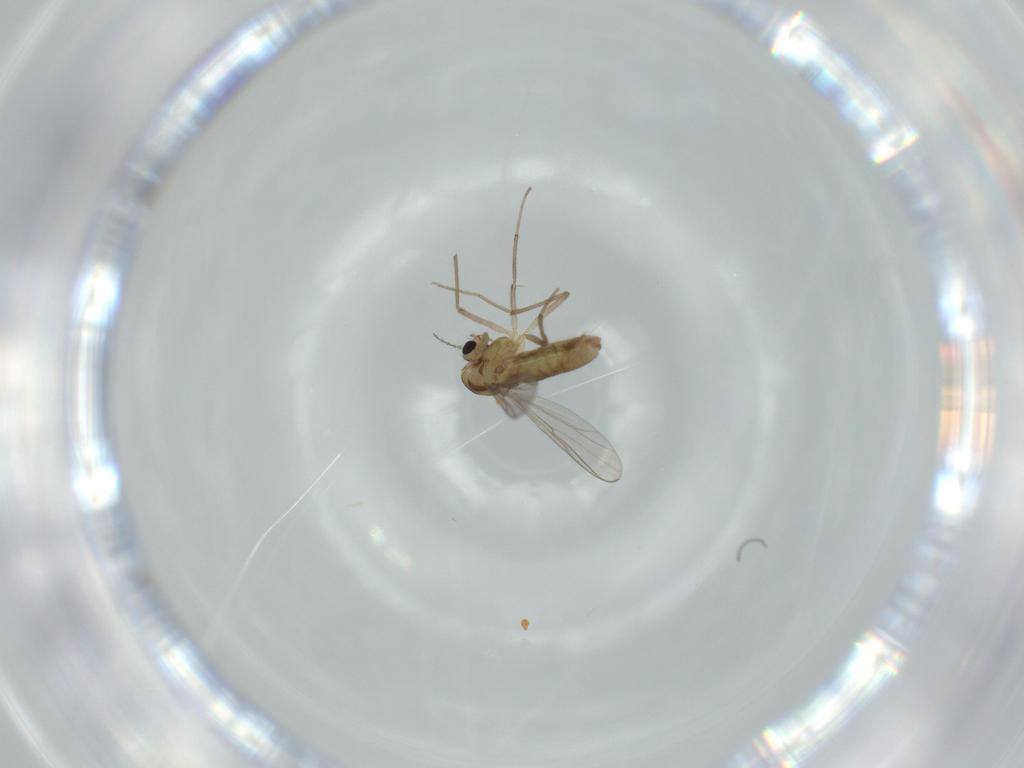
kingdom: Animalia
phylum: Arthropoda
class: Insecta
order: Diptera
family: Chironomidae
